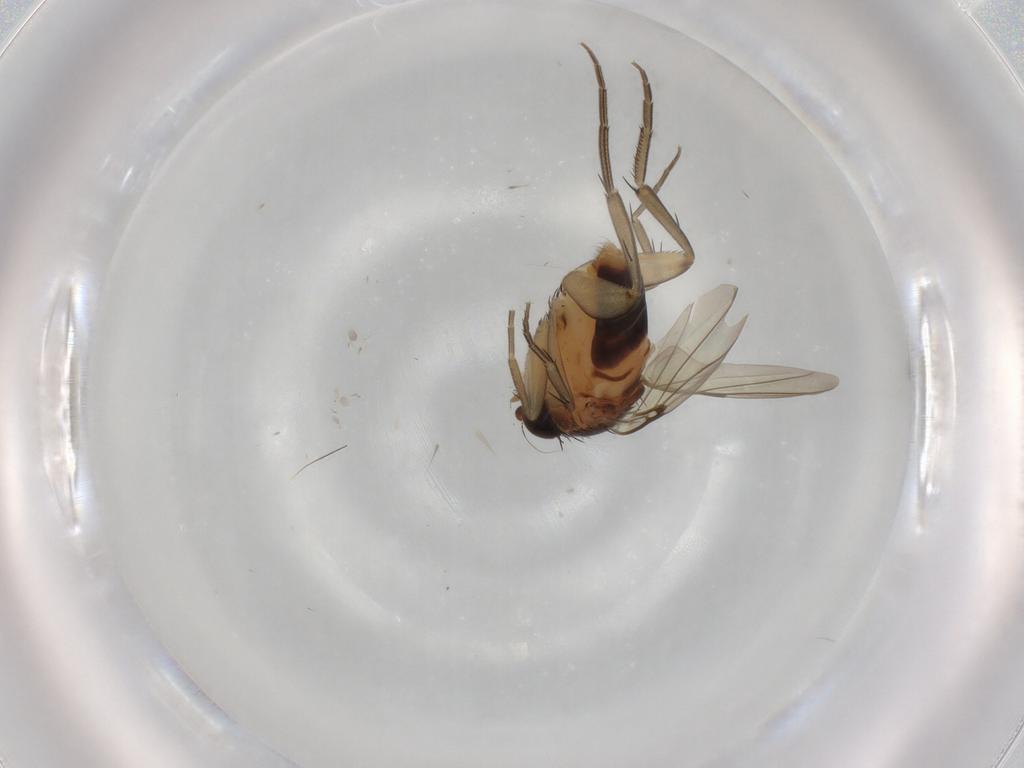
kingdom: Animalia
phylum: Arthropoda
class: Insecta
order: Diptera
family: Phoridae
